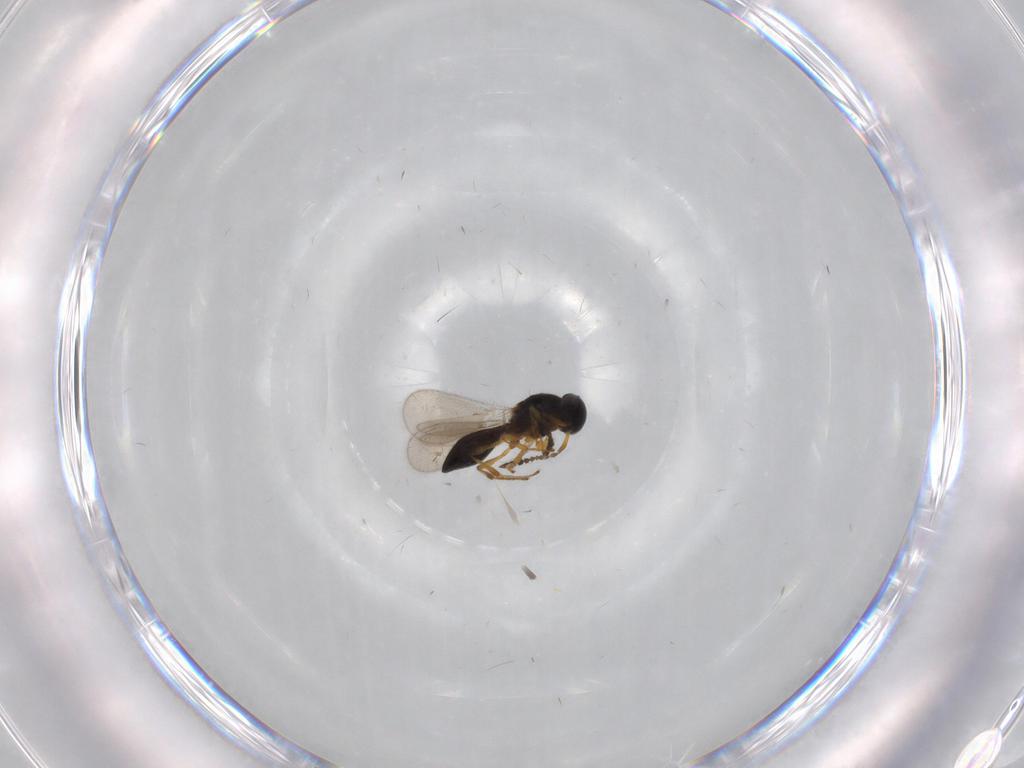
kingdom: Animalia
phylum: Arthropoda
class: Insecta
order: Hymenoptera
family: Platygastridae
